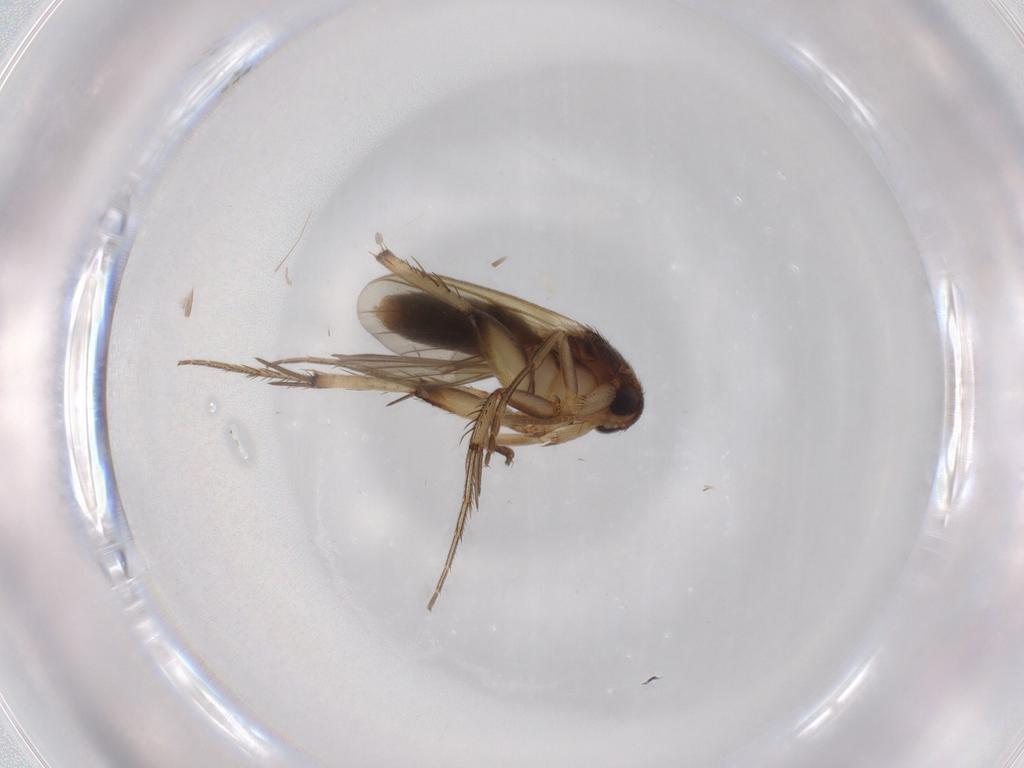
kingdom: Animalia
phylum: Arthropoda
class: Insecta
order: Diptera
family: Mycetophilidae
